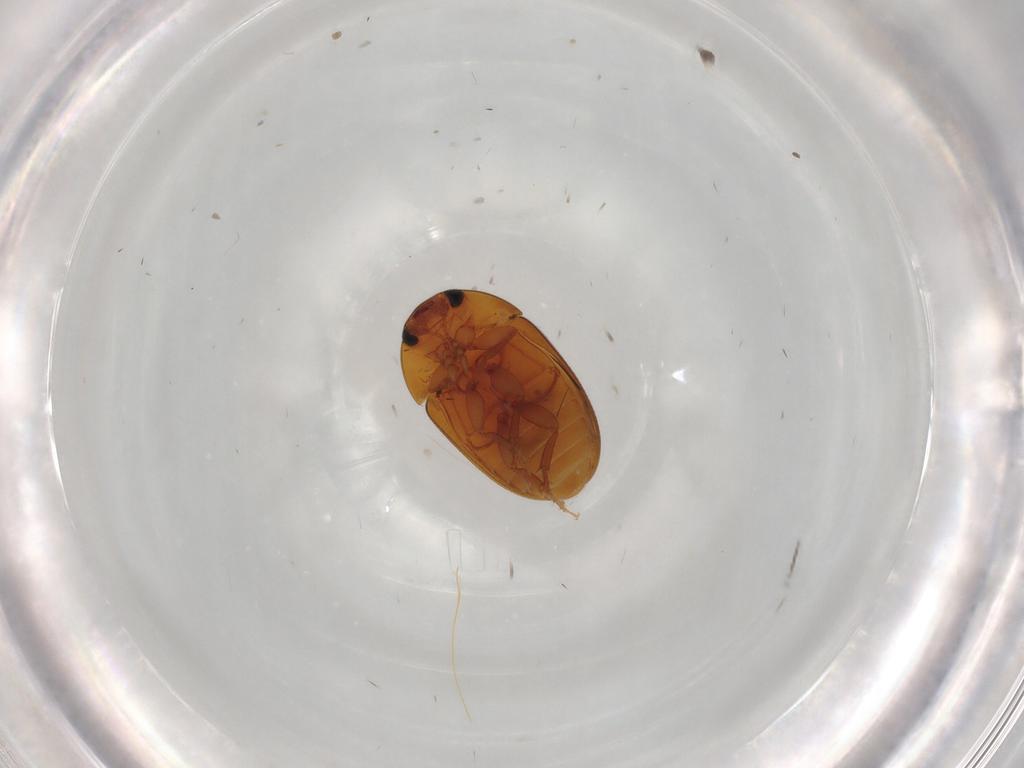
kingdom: Animalia
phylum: Arthropoda
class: Insecta
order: Coleoptera
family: Phalacridae
